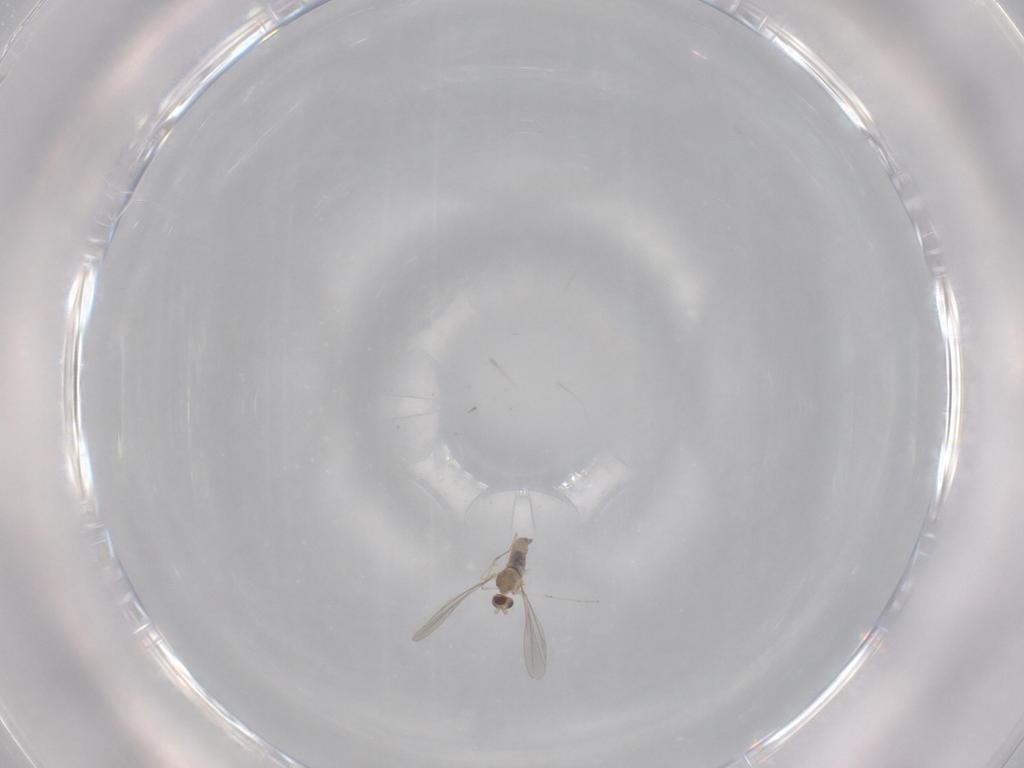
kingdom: Animalia
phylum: Arthropoda
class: Insecta
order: Diptera
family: Cecidomyiidae
